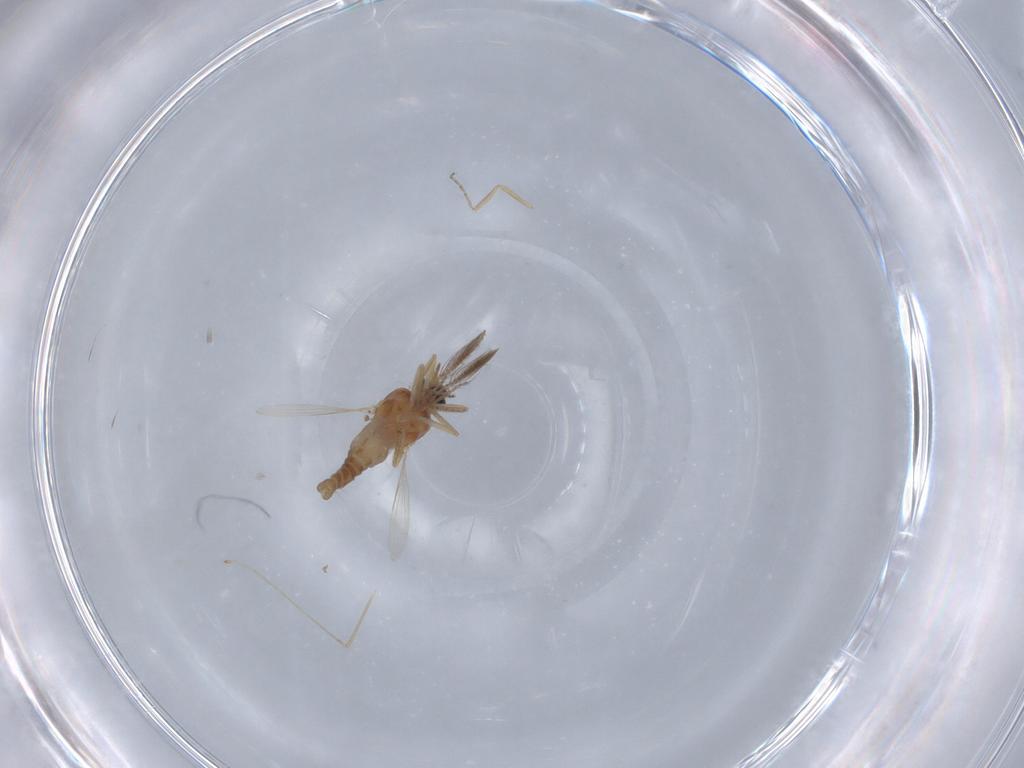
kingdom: Animalia
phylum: Arthropoda
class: Insecta
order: Diptera
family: Ceratopogonidae
